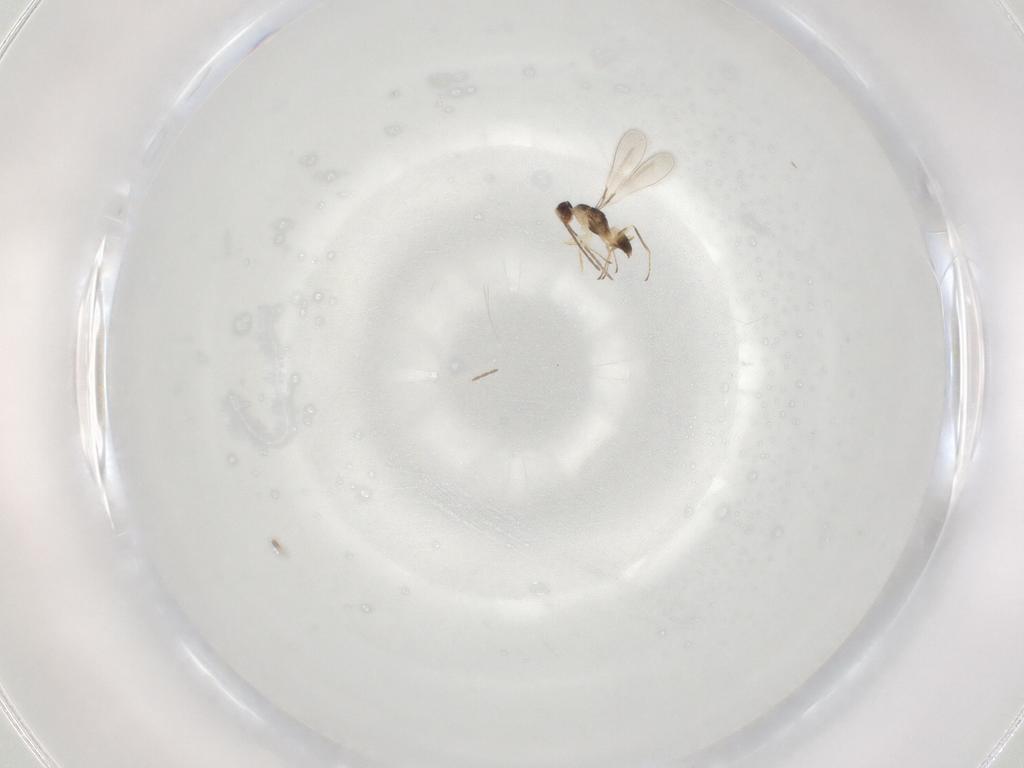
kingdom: Animalia
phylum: Arthropoda
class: Insecta
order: Hymenoptera
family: Mymaridae
